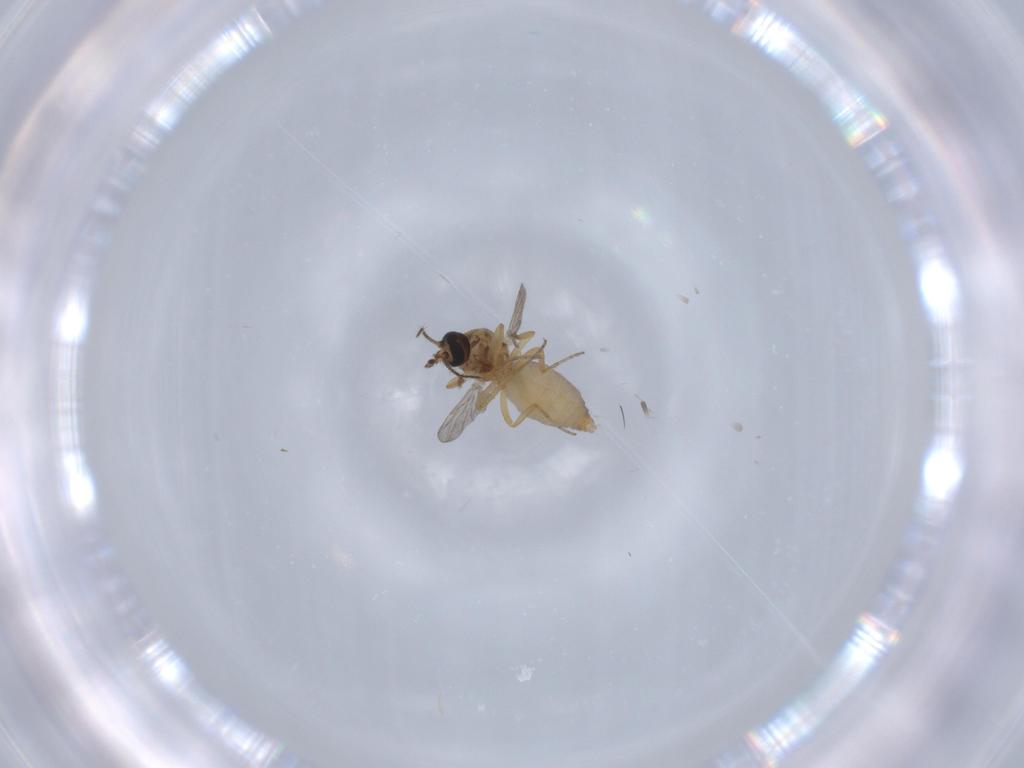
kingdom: Animalia
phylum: Arthropoda
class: Insecta
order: Diptera
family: Ceratopogonidae
